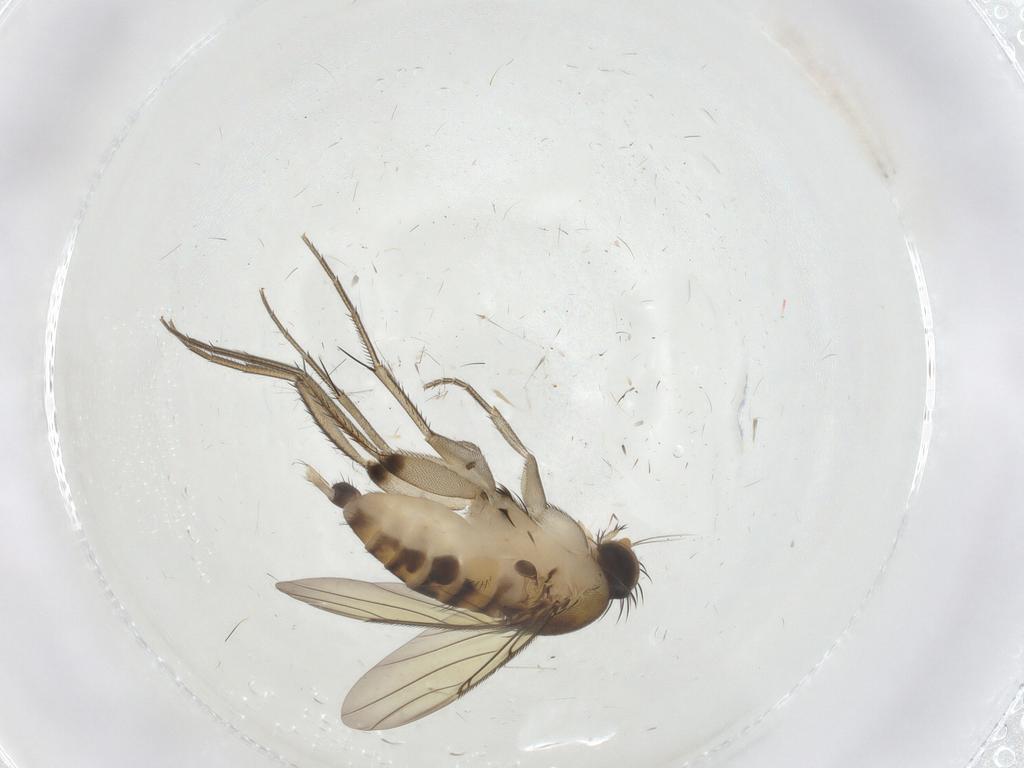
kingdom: Animalia
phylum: Arthropoda
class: Insecta
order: Diptera
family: Phoridae
